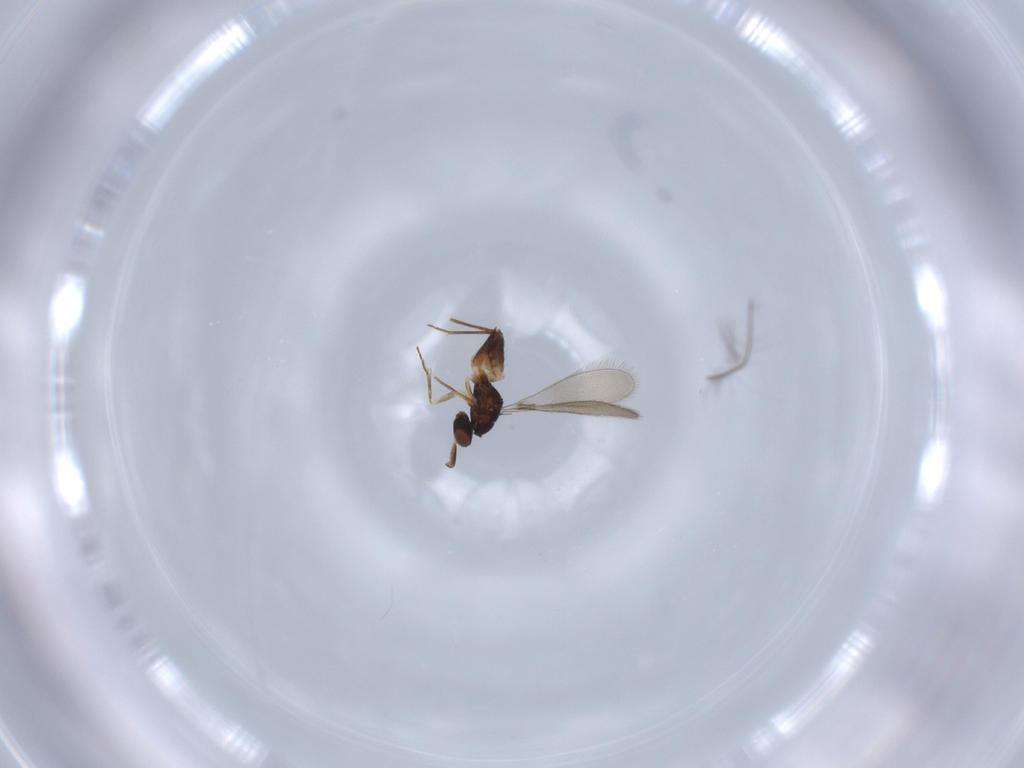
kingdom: Animalia
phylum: Arthropoda
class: Insecta
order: Hymenoptera
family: Mymaridae
